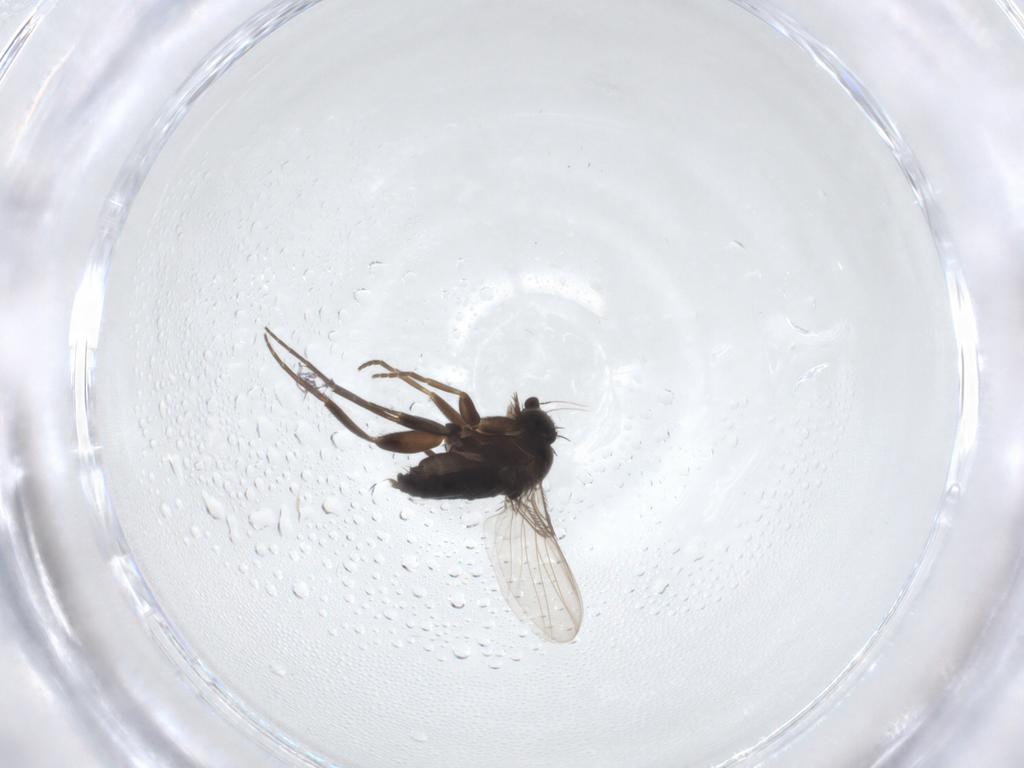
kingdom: Animalia
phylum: Arthropoda
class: Insecta
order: Diptera
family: Phoridae
